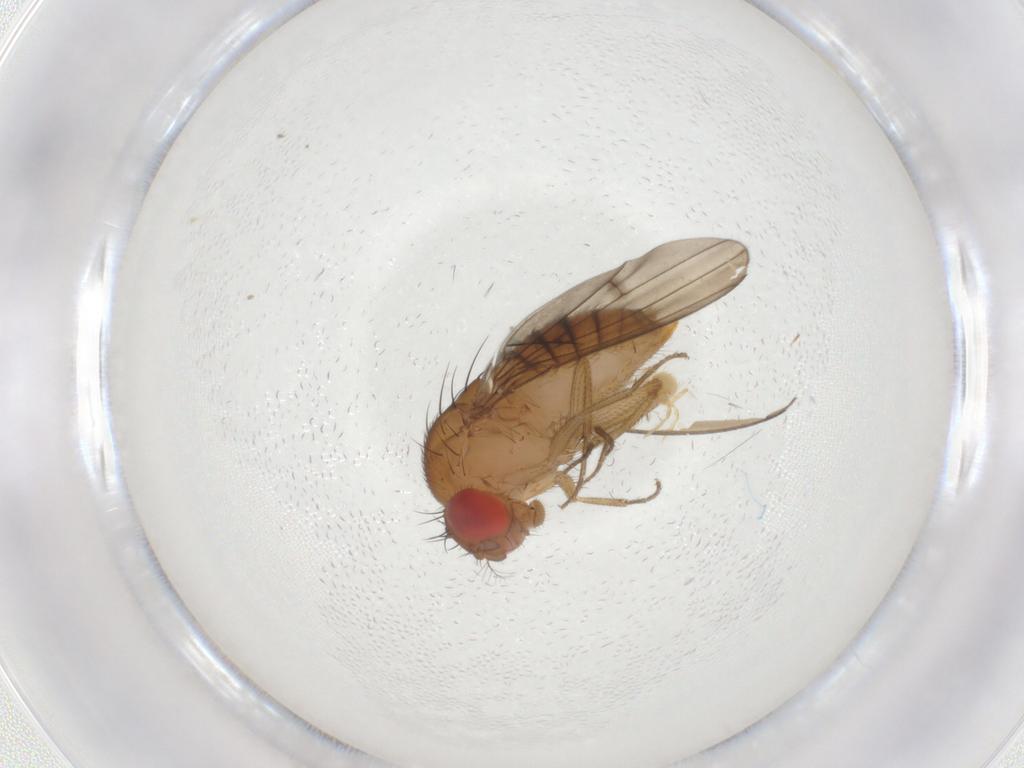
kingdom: Animalia
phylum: Arthropoda
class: Insecta
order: Diptera
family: Drosophilidae
